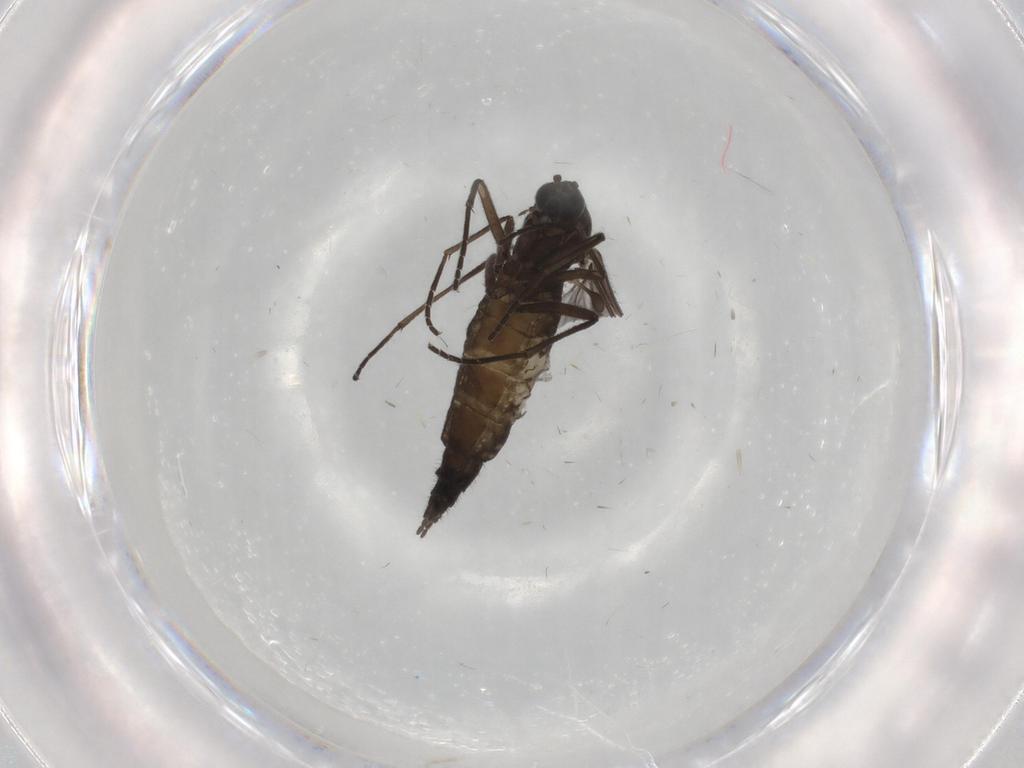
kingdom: Animalia
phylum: Arthropoda
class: Insecta
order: Diptera
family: Sciaridae
